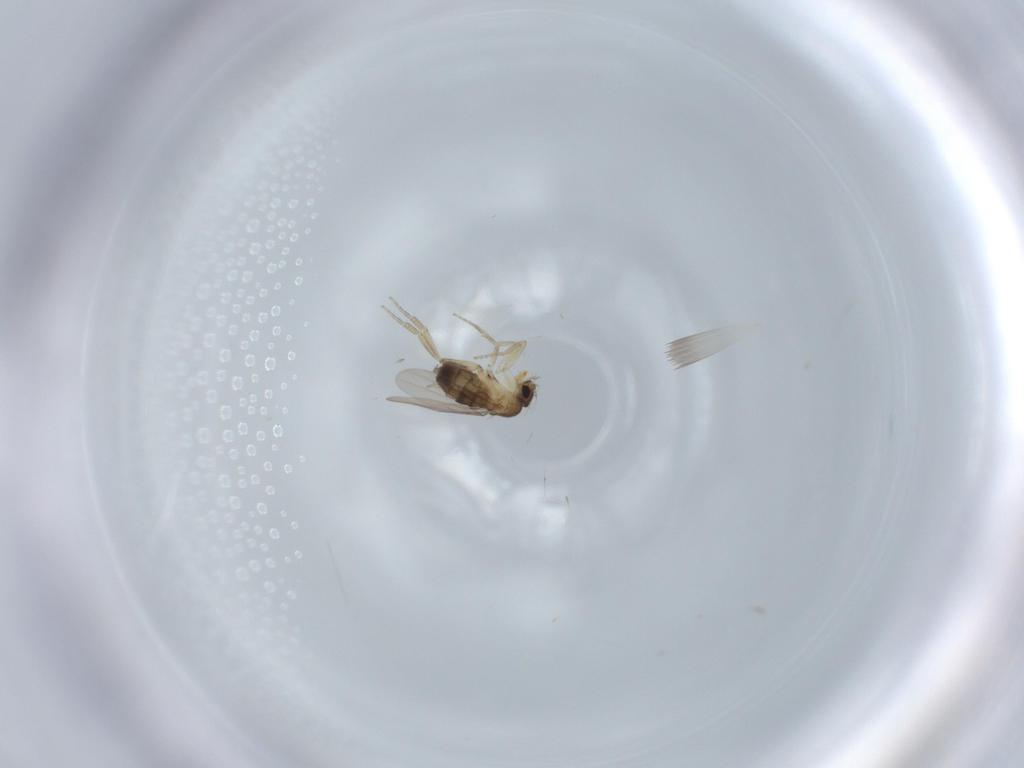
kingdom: Animalia
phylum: Arthropoda
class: Insecta
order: Diptera
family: Phoridae
